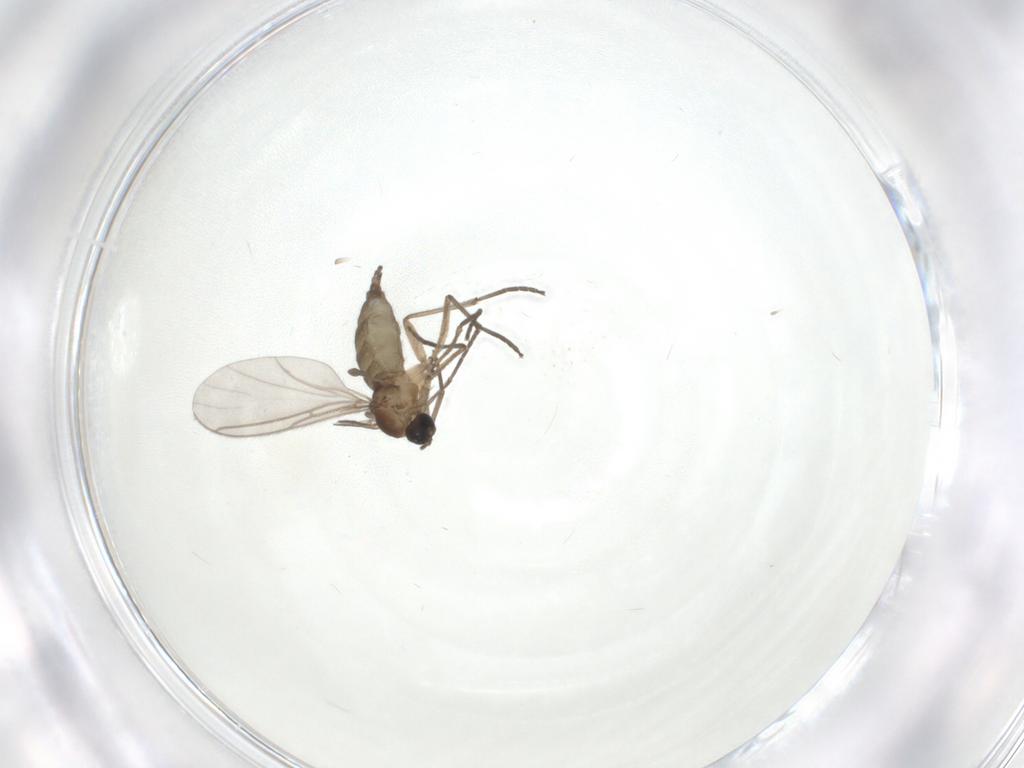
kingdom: Animalia
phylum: Arthropoda
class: Insecta
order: Diptera
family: Sciaridae
